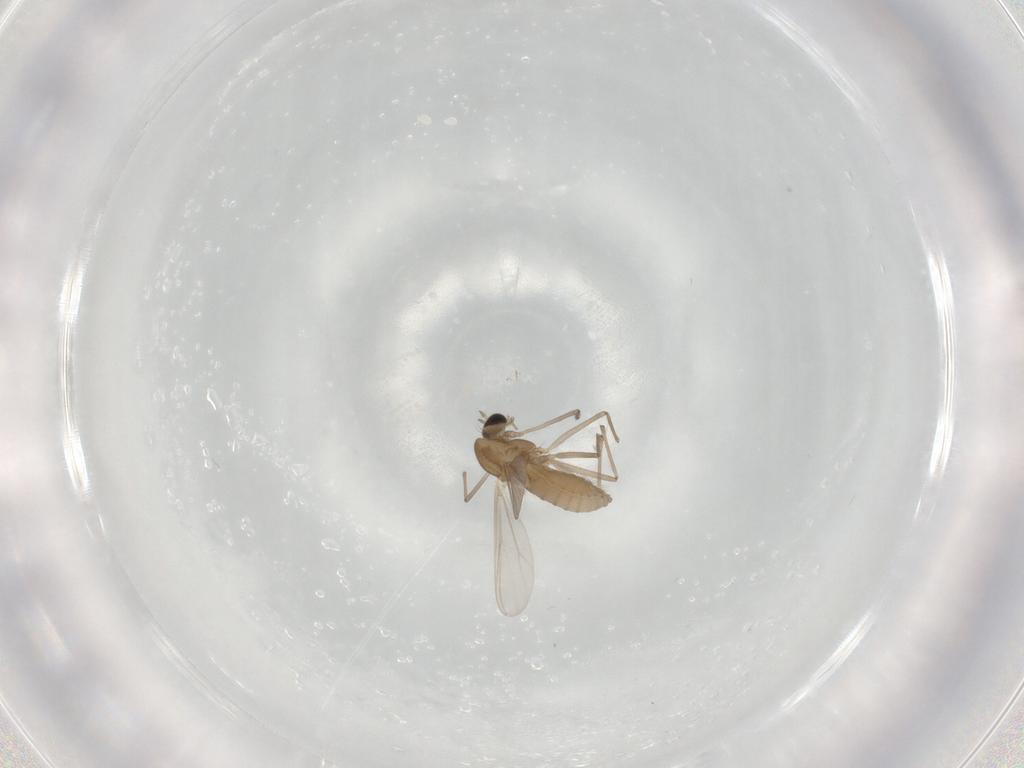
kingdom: Animalia
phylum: Arthropoda
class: Insecta
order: Diptera
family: Chironomidae
